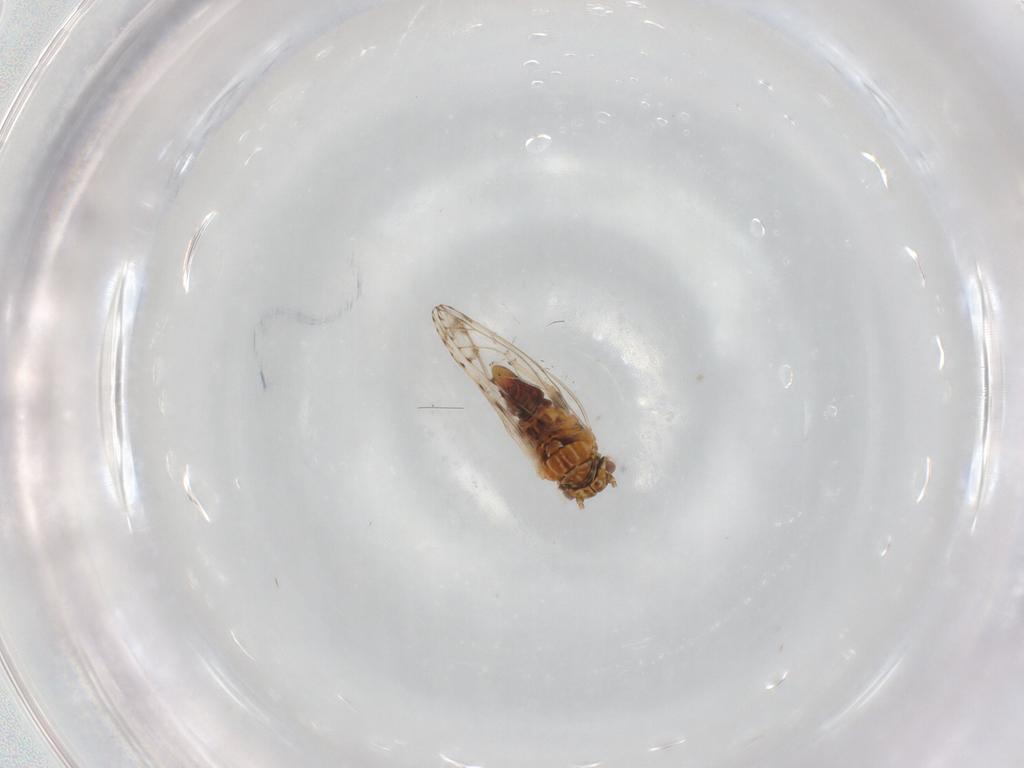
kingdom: Animalia
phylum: Arthropoda
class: Insecta
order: Hemiptera
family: Psyllidae
